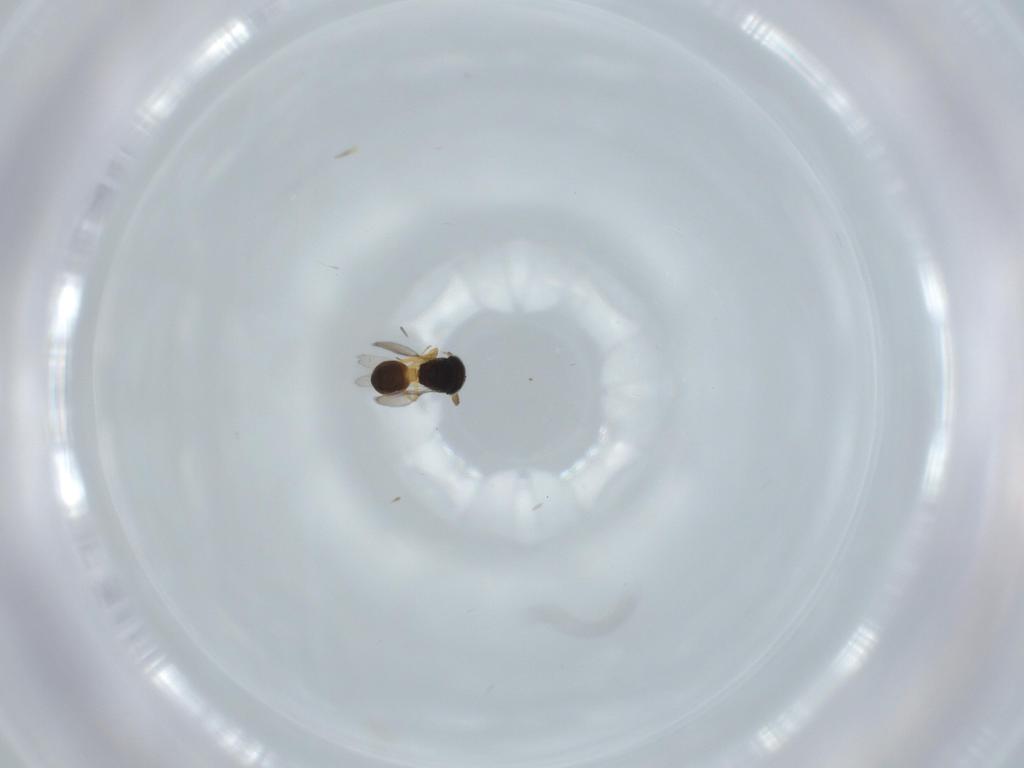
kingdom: Animalia
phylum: Arthropoda
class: Insecta
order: Hymenoptera
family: Scelionidae
